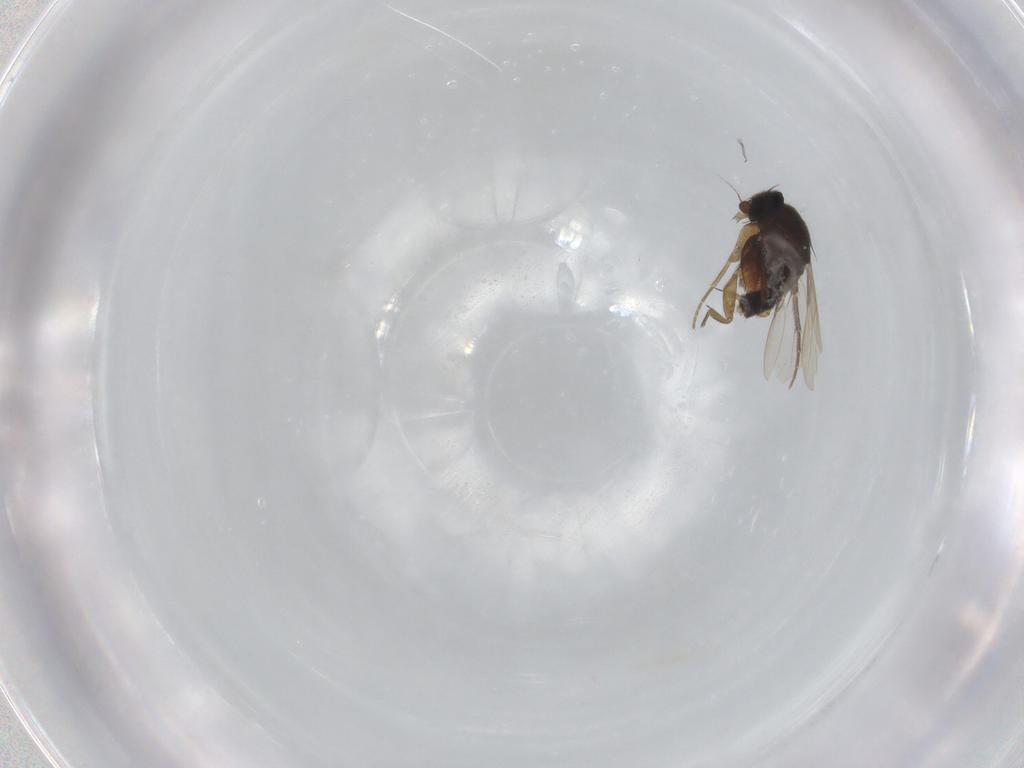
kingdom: Animalia
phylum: Arthropoda
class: Insecta
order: Diptera
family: Phoridae
